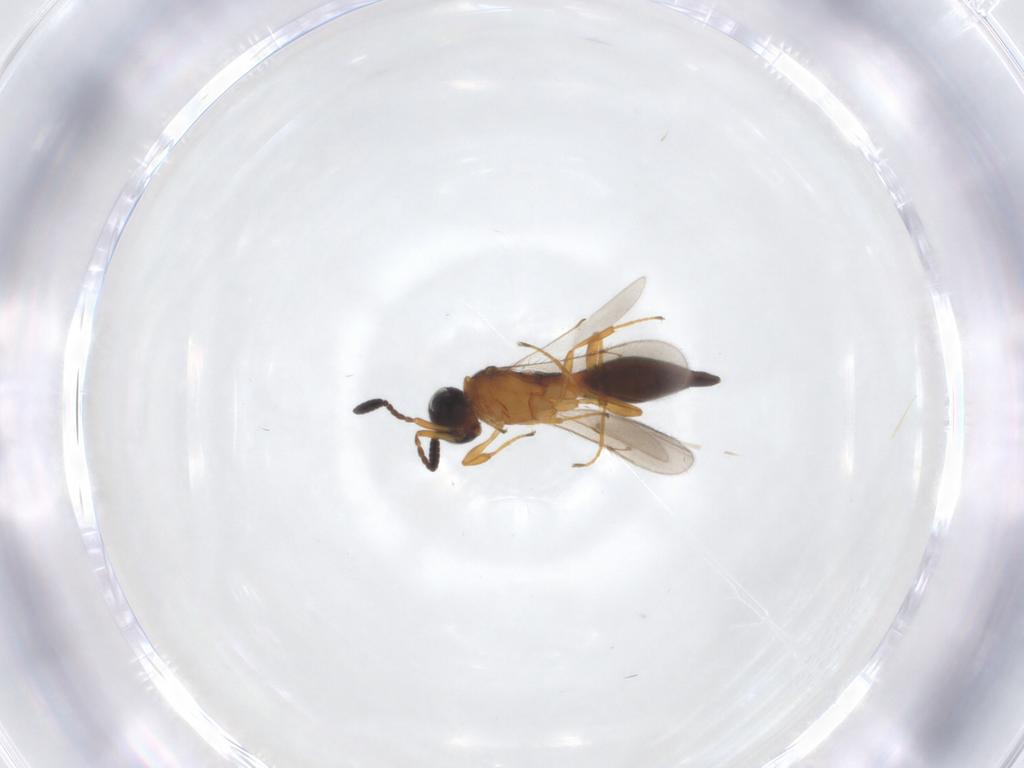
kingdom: Animalia
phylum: Arthropoda
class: Insecta
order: Hymenoptera
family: Scelionidae
